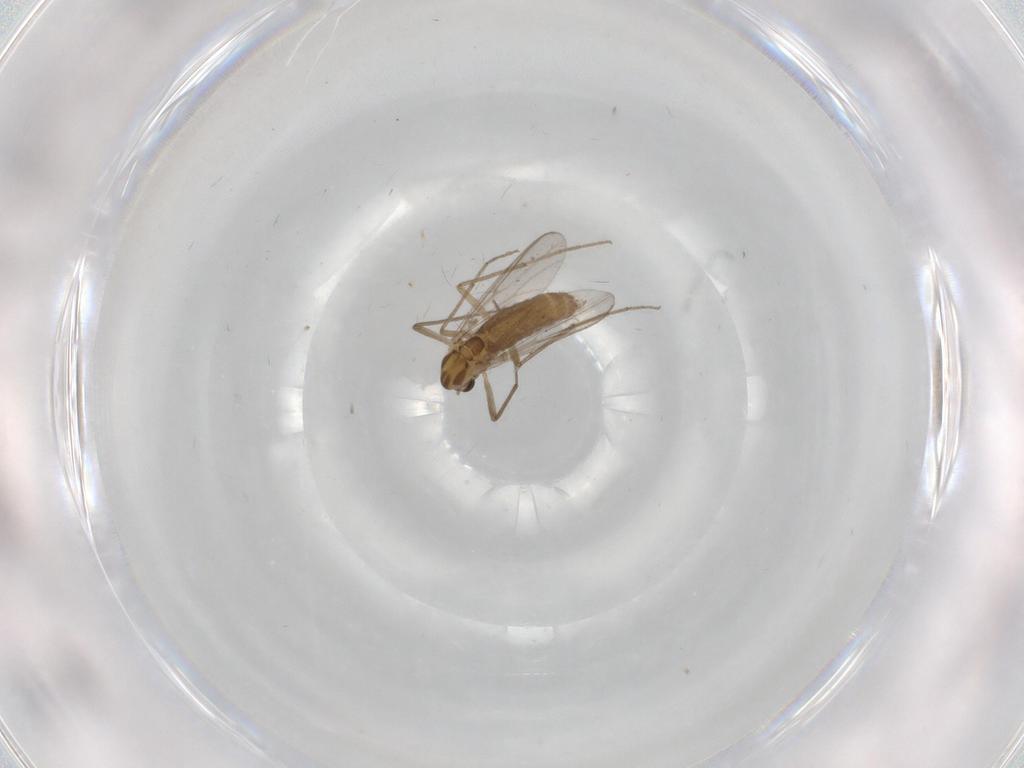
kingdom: Animalia
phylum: Arthropoda
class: Insecta
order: Diptera
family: Chironomidae
